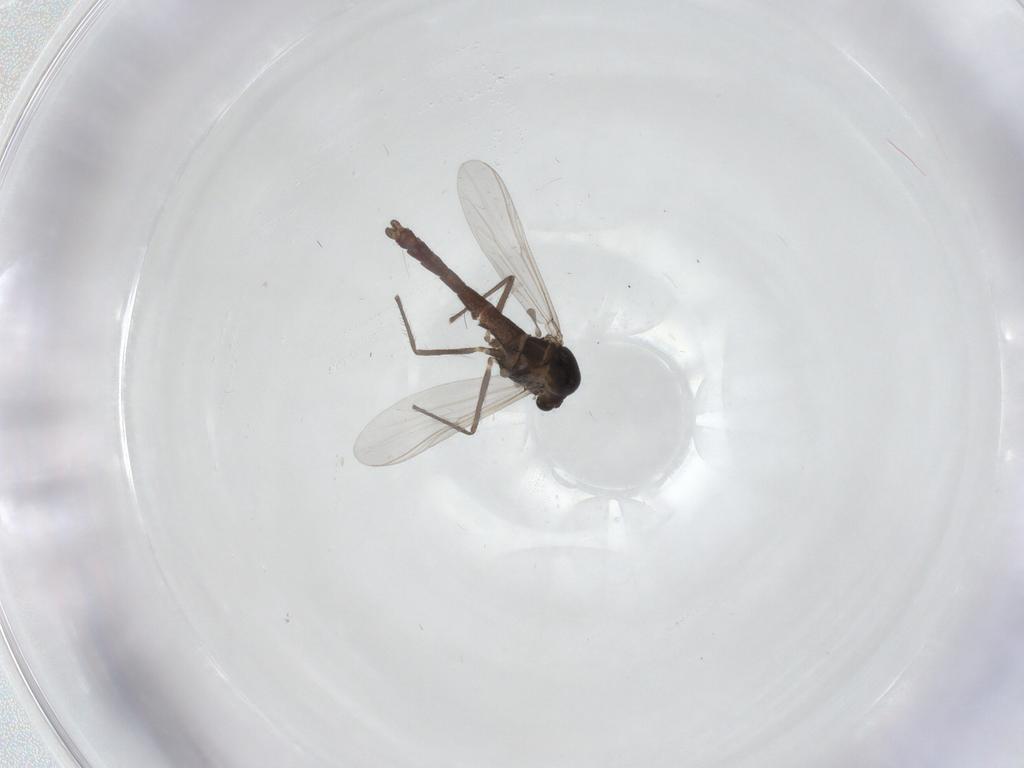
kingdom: Animalia
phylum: Arthropoda
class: Insecta
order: Diptera
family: Chironomidae
